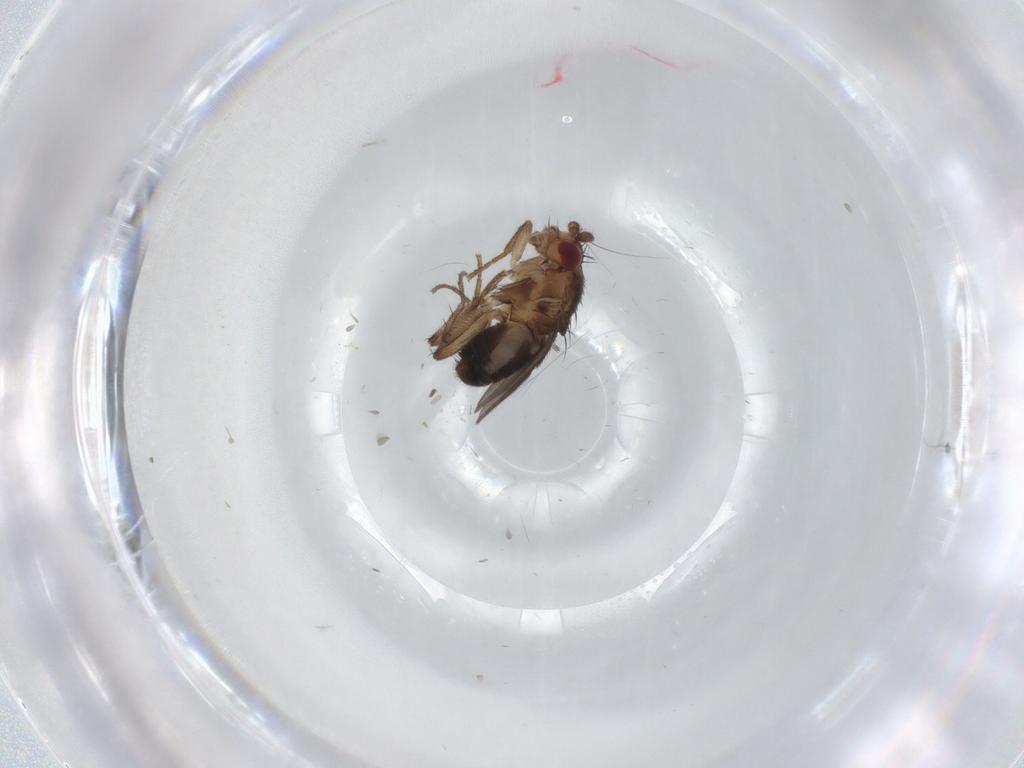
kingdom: Animalia
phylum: Arthropoda
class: Insecta
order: Diptera
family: Sphaeroceridae
